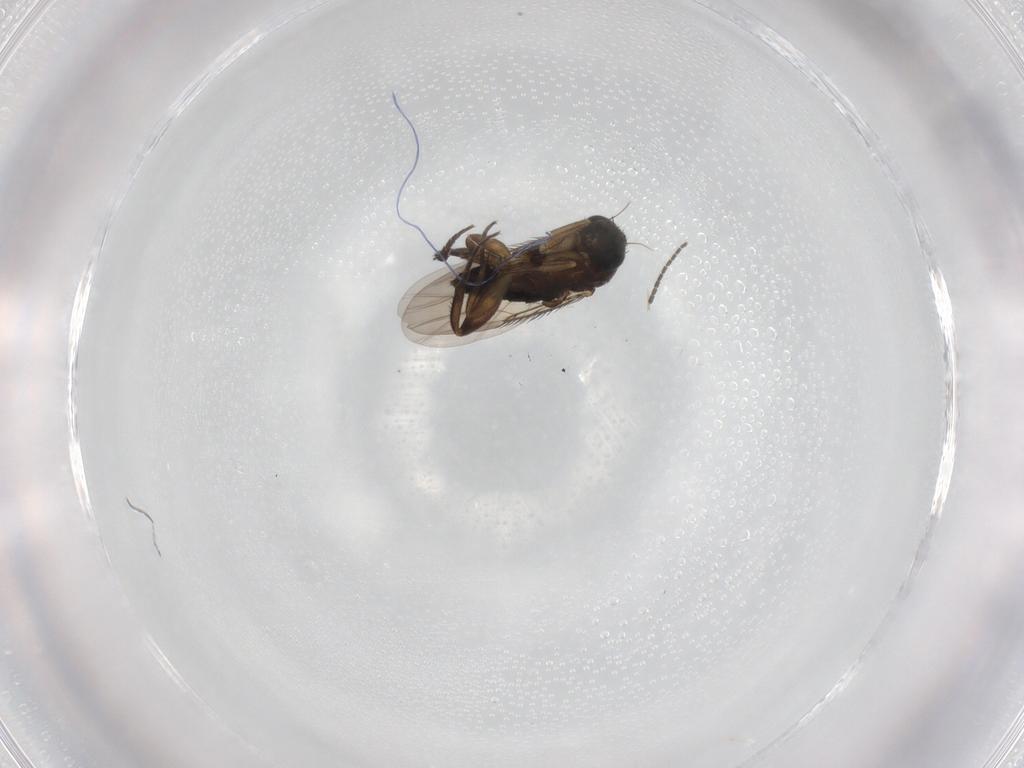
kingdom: Animalia
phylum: Arthropoda
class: Insecta
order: Diptera
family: Phoridae
